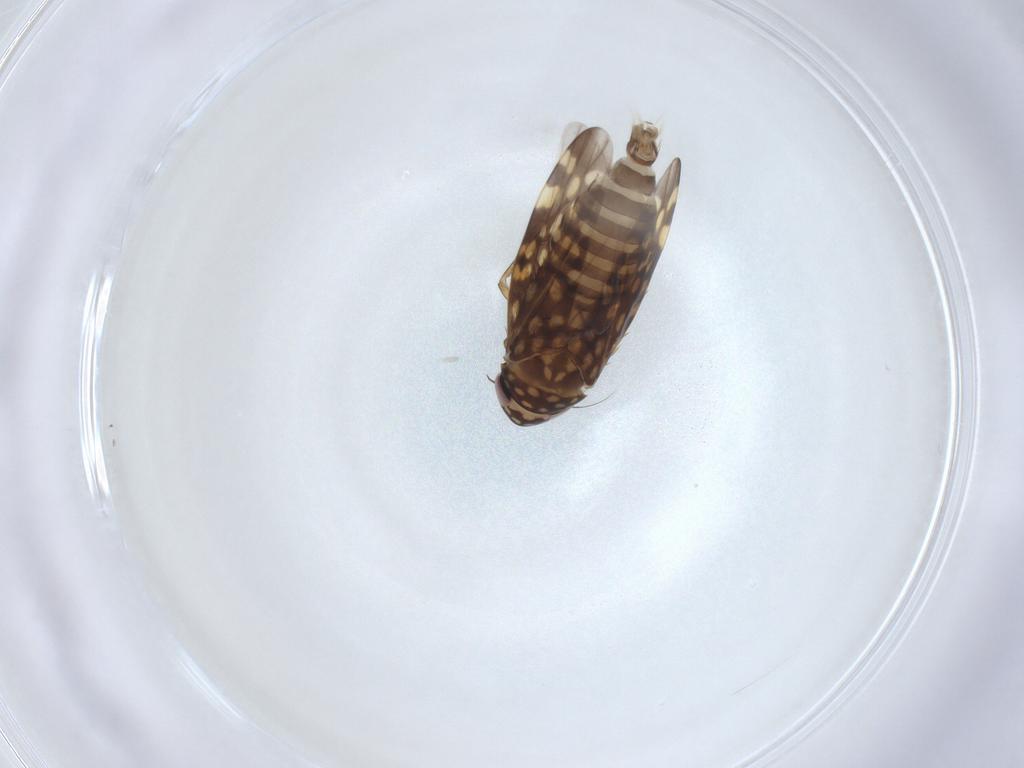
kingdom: Animalia
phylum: Arthropoda
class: Insecta
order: Hemiptera
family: Cicadellidae
